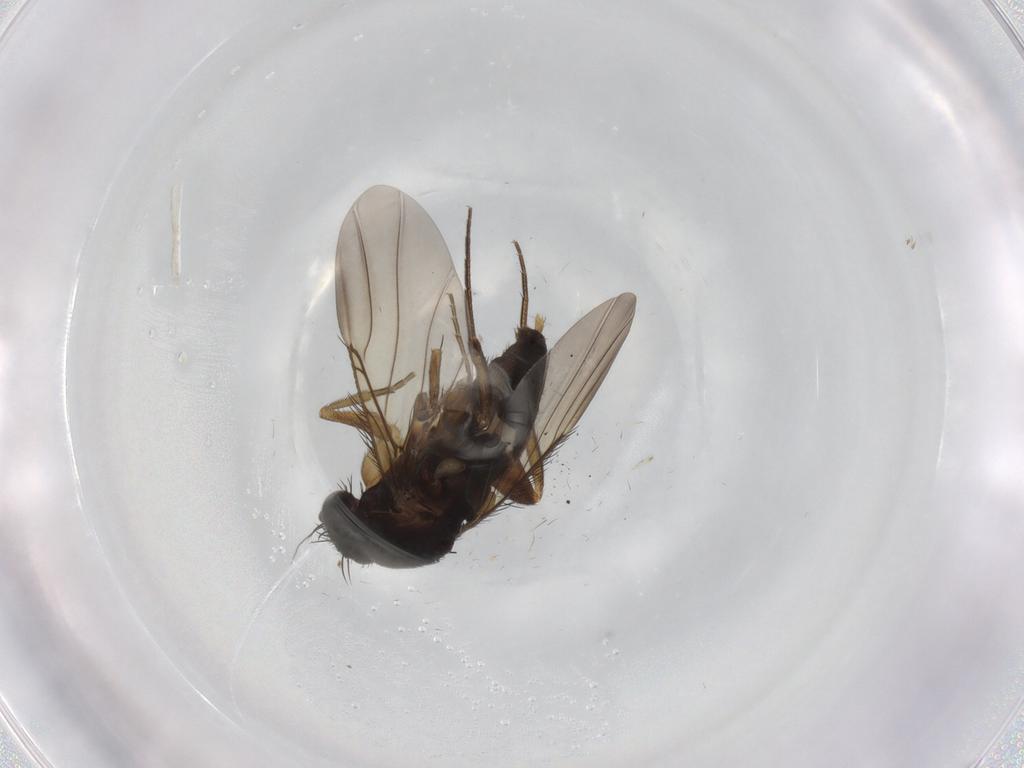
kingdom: Animalia
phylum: Arthropoda
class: Insecta
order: Diptera
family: Phoridae
